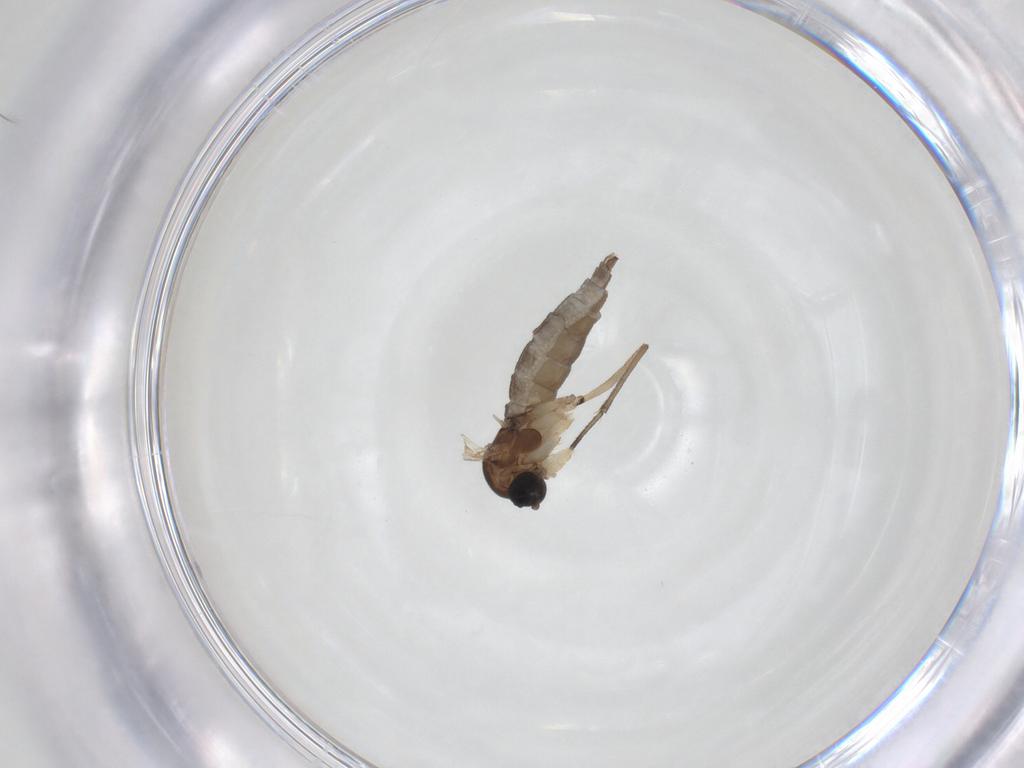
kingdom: Animalia
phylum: Arthropoda
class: Insecta
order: Diptera
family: Sciaridae
